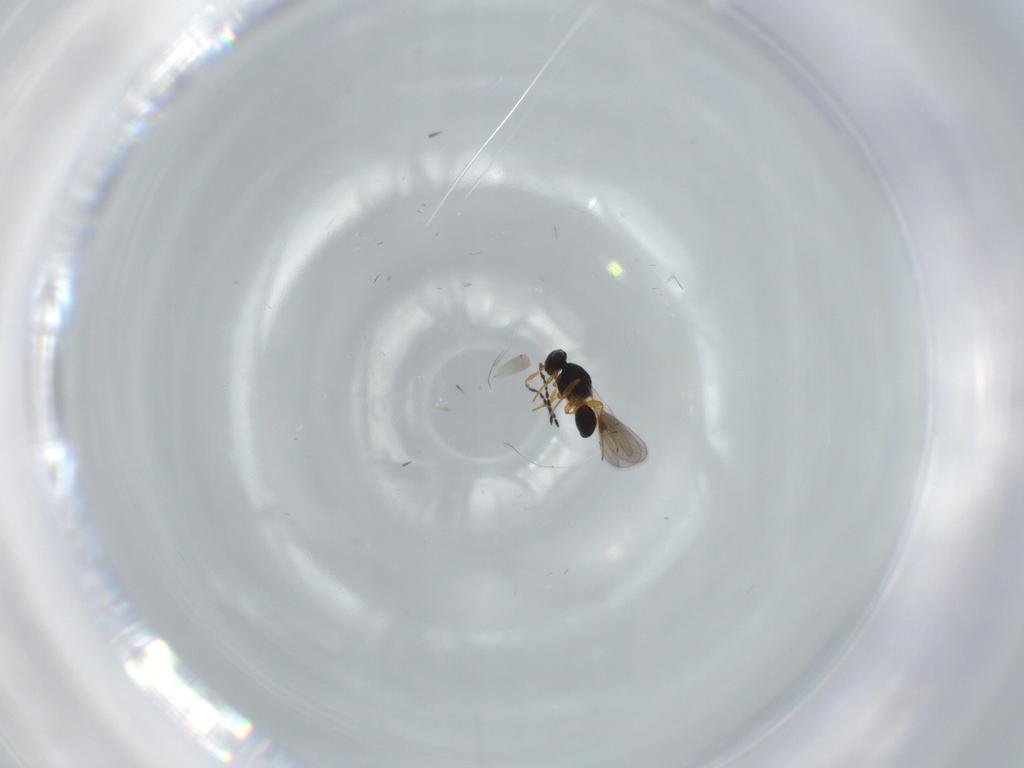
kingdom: Animalia
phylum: Arthropoda
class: Insecta
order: Hymenoptera
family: Platygastridae
